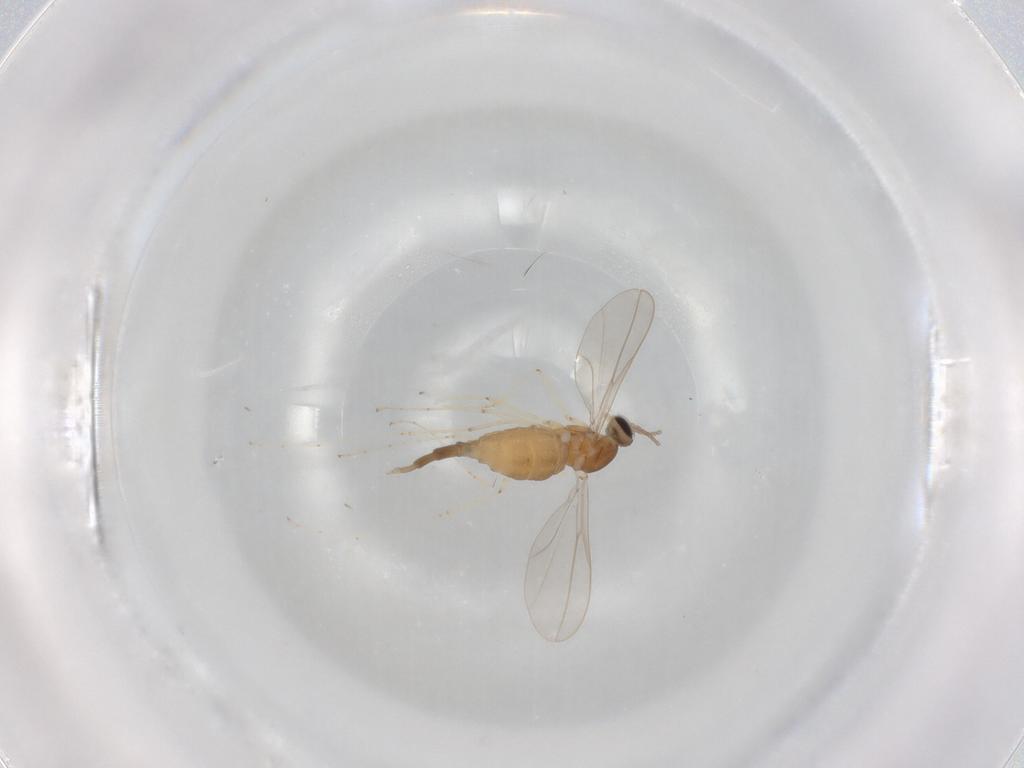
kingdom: Animalia
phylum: Arthropoda
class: Insecta
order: Diptera
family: Cecidomyiidae
